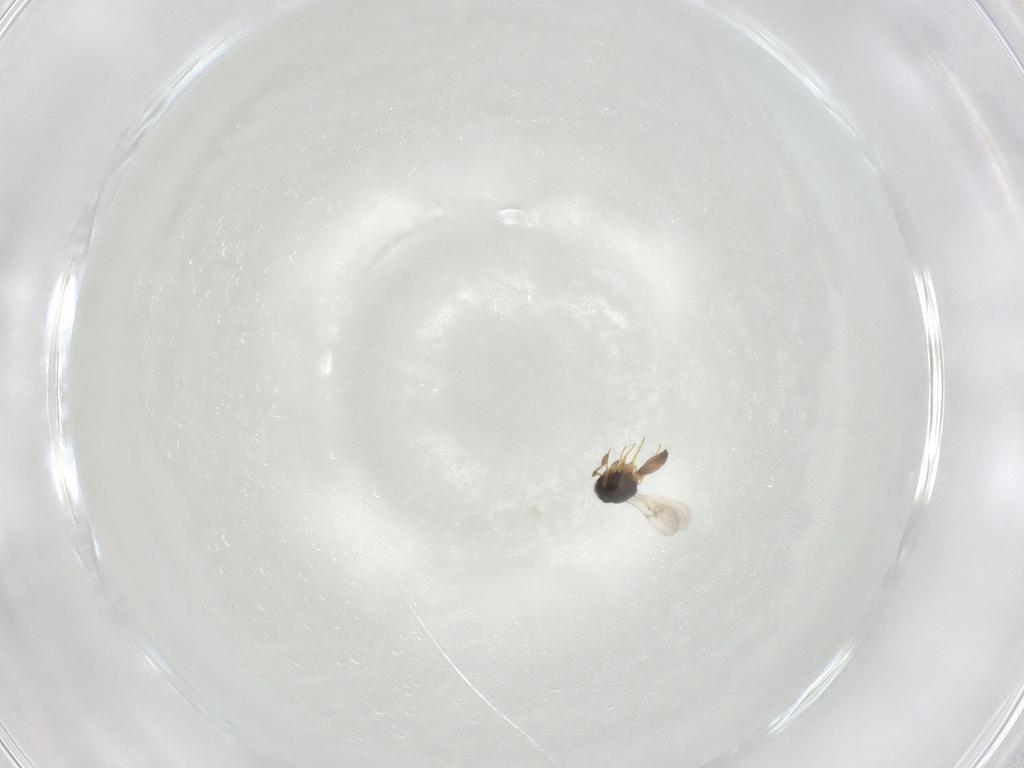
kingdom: Animalia
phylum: Arthropoda
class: Insecta
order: Hymenoptera
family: Scelionidae
